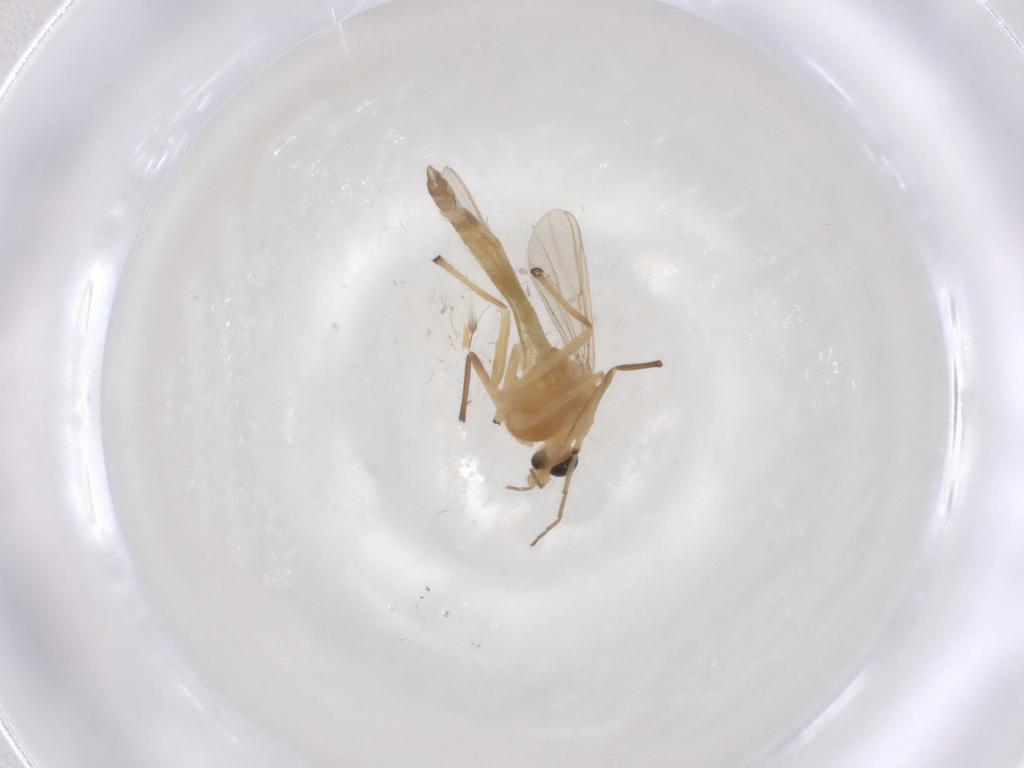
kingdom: Animalia
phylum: Arthropoda
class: Insecta
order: Diptera
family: Chironomidae
